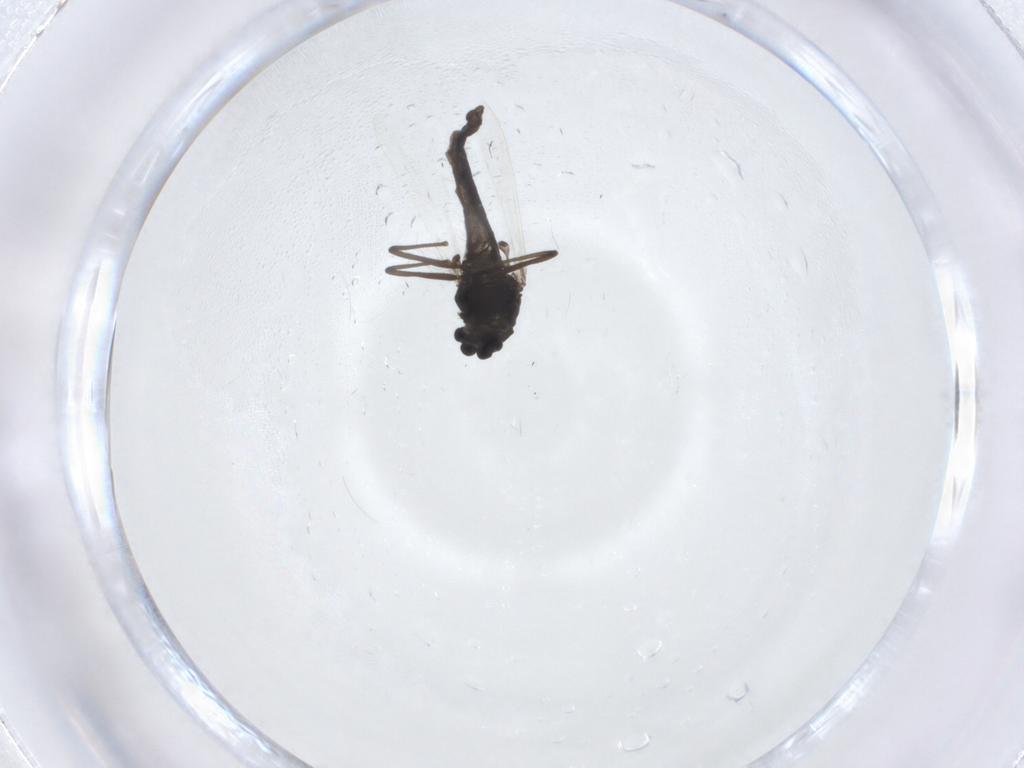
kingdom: Animalia
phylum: Arthropoda
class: Insecta
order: Diptera
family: Chironomidae
